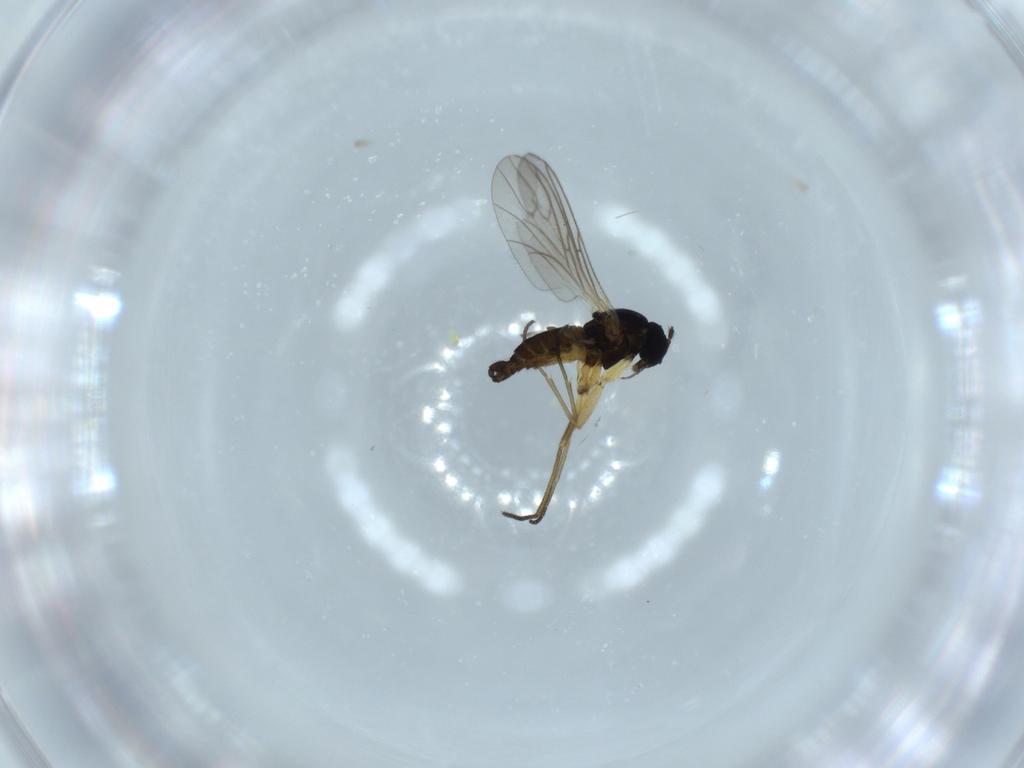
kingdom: Animalia
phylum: Arthropoda
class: Insecta
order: Diptera
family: Sciaridae
